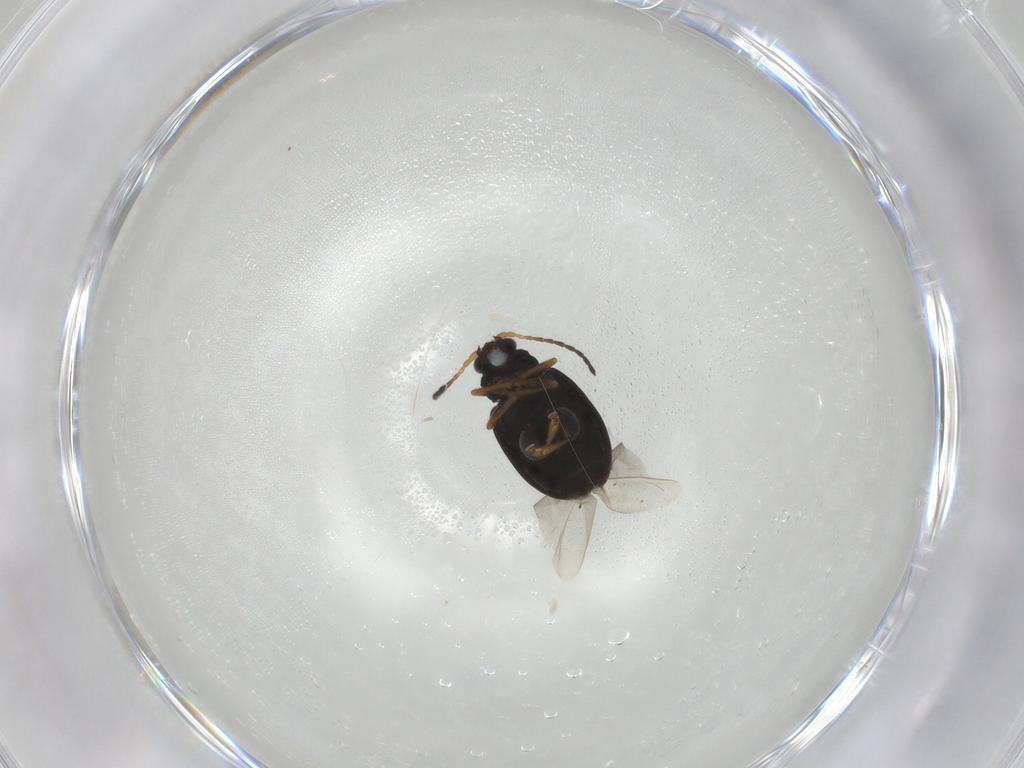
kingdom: Animalia
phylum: Arthropoda
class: Insecta
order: Coleoptera
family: Chrysomelidae
